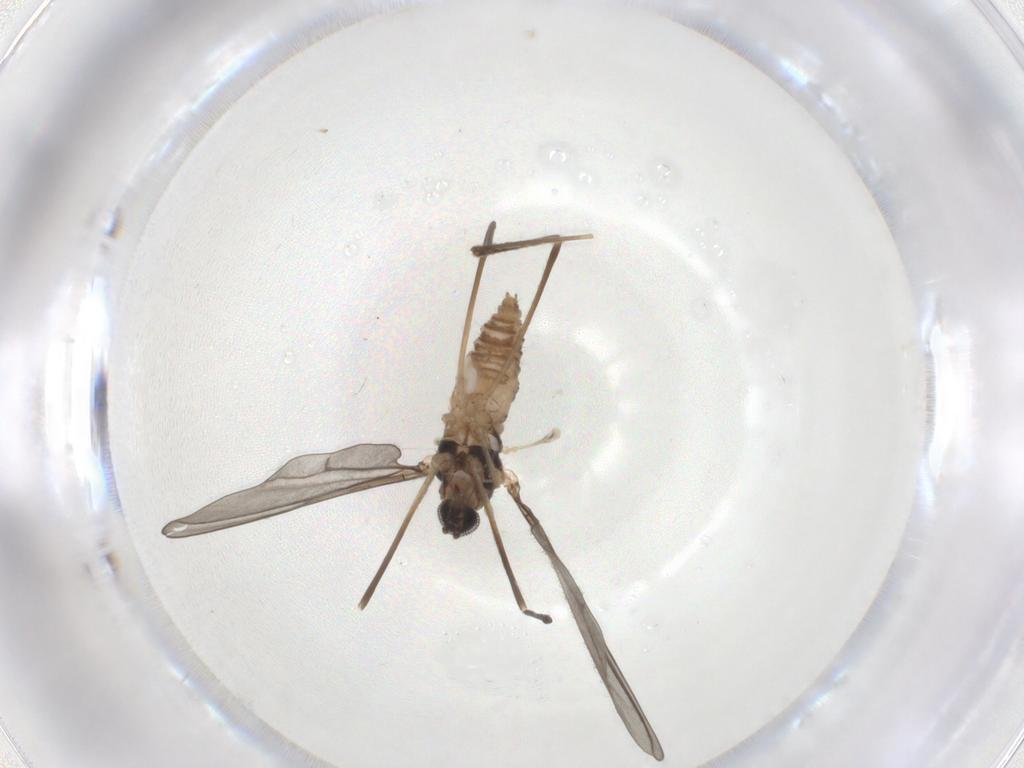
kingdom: Animalia
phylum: Arthropoda
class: Insecta
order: Diptera
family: Cecidomyiidae
